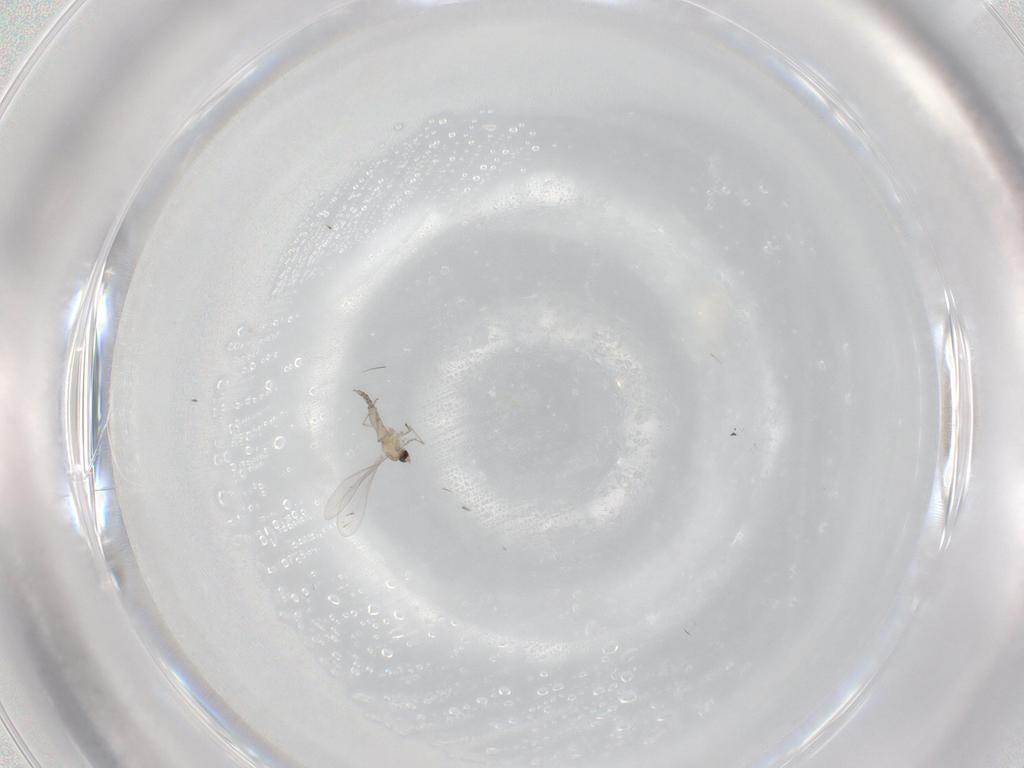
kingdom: Animalia
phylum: Arthropoda
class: Insecta
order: Diptera
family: Cecidomyiidae
